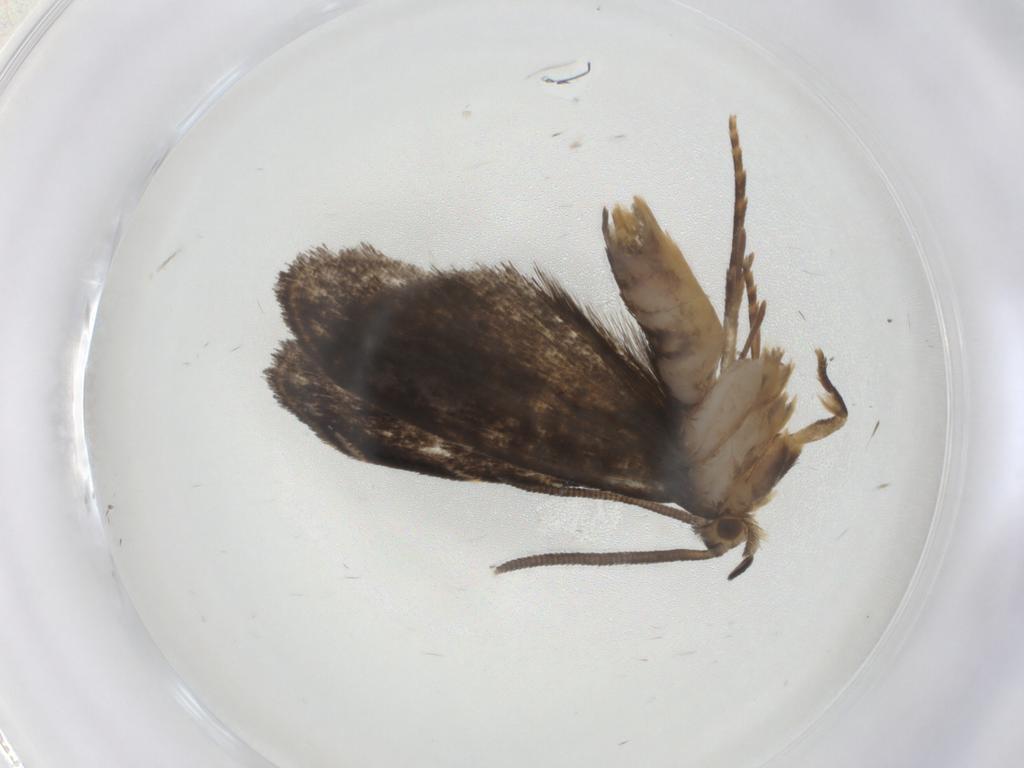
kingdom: Animalia
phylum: Arthropoda
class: Insecta
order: Lepidoptera
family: Dryadaulidae
